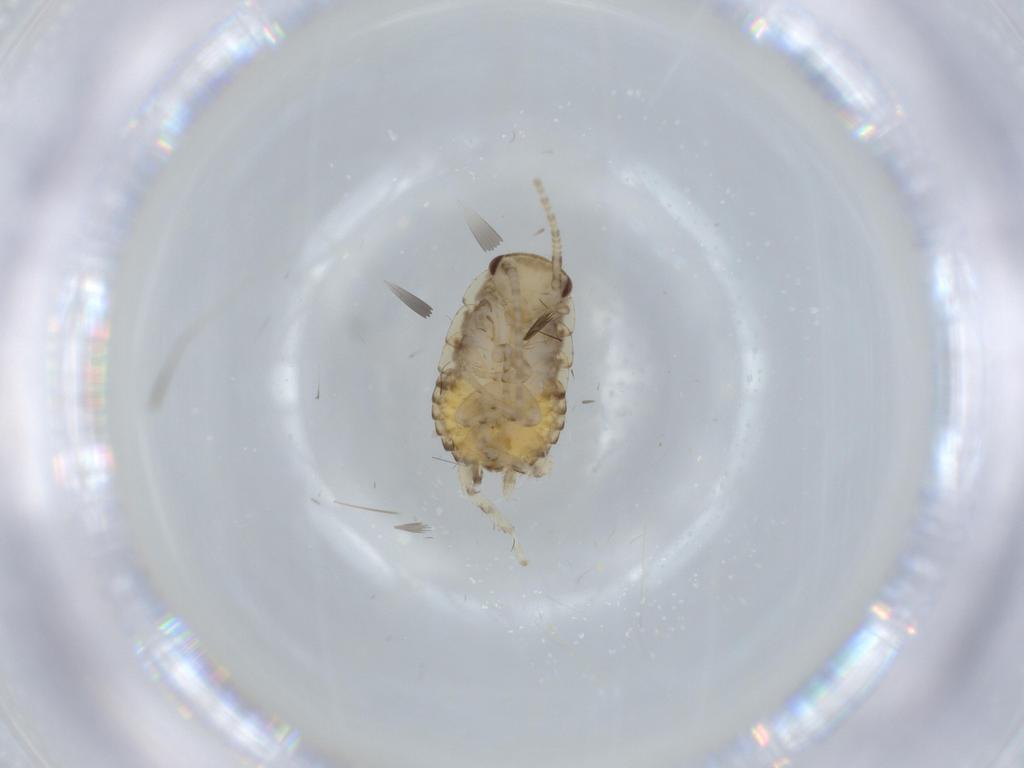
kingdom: Animalia
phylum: Arthropoda
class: Insecta
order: Blattodea
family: Ectobiidae
